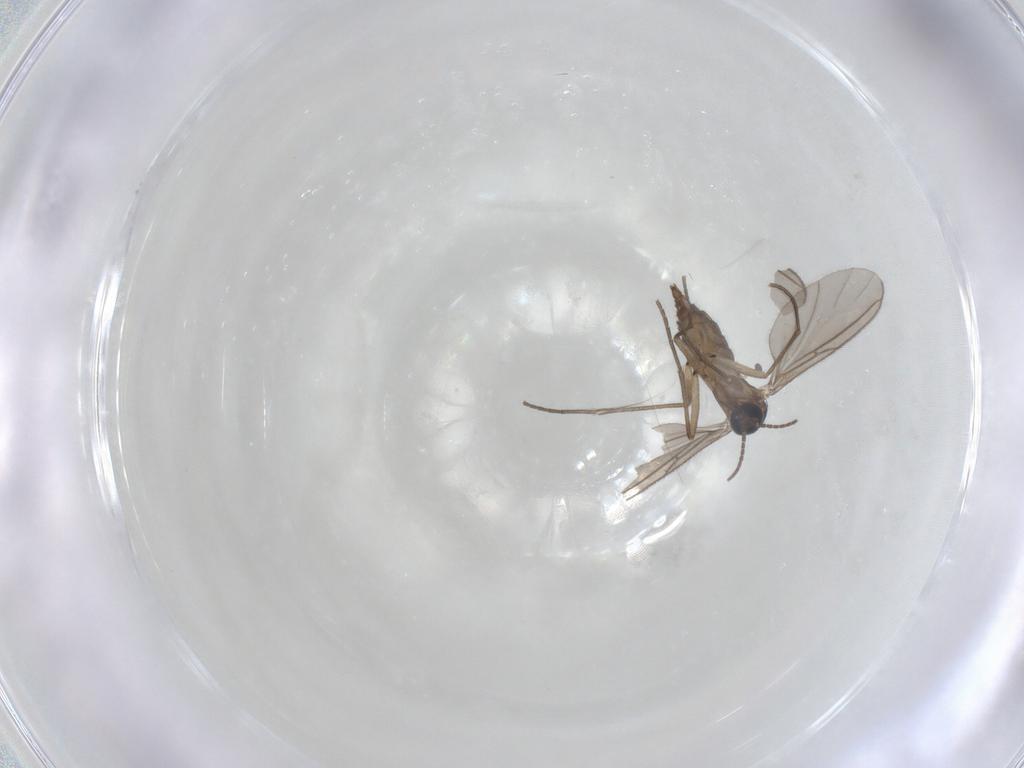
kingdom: Animalia
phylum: Arthropoda
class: Insecta
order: Diptera
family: Sciaridae
